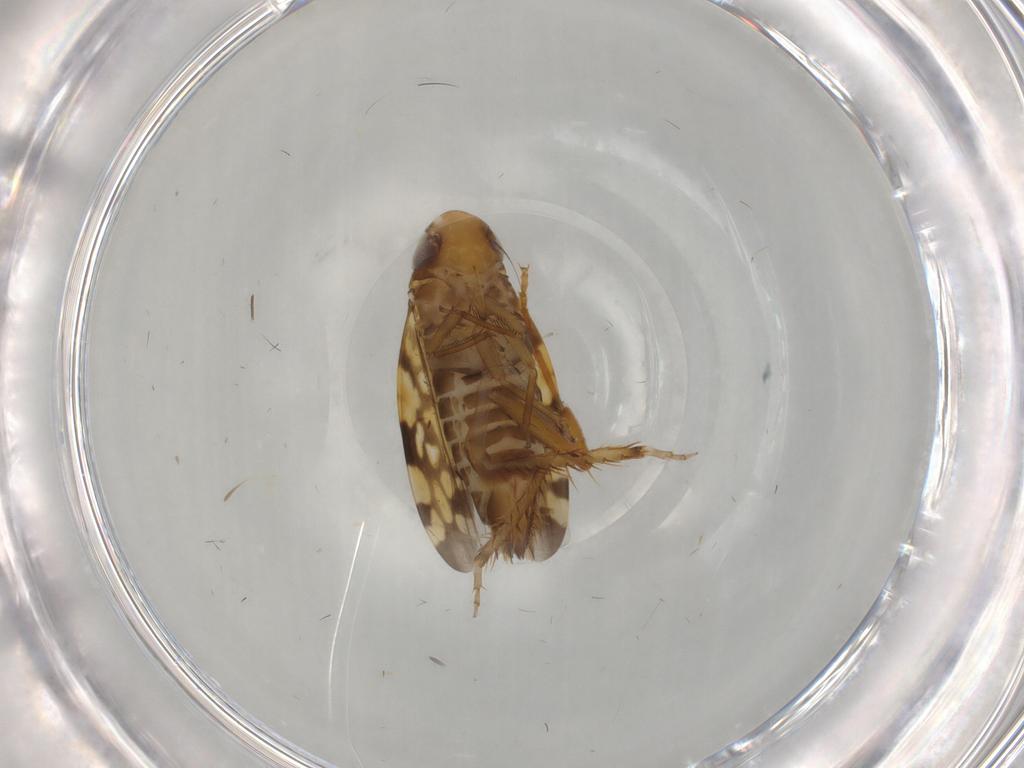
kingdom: Animalia
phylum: Arthropoda
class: Insecta
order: Hemiptera
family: Cicadellidae
